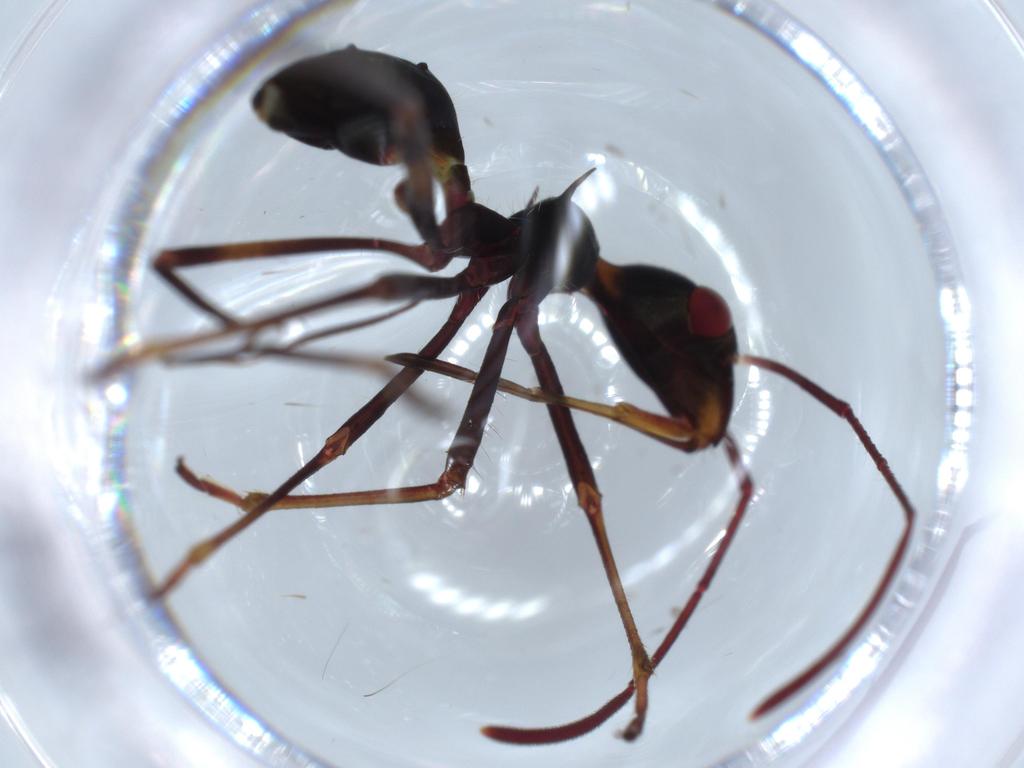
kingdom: Animalia
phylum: Arthropoda
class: Insecta
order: Hemiptera
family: Alydidae
